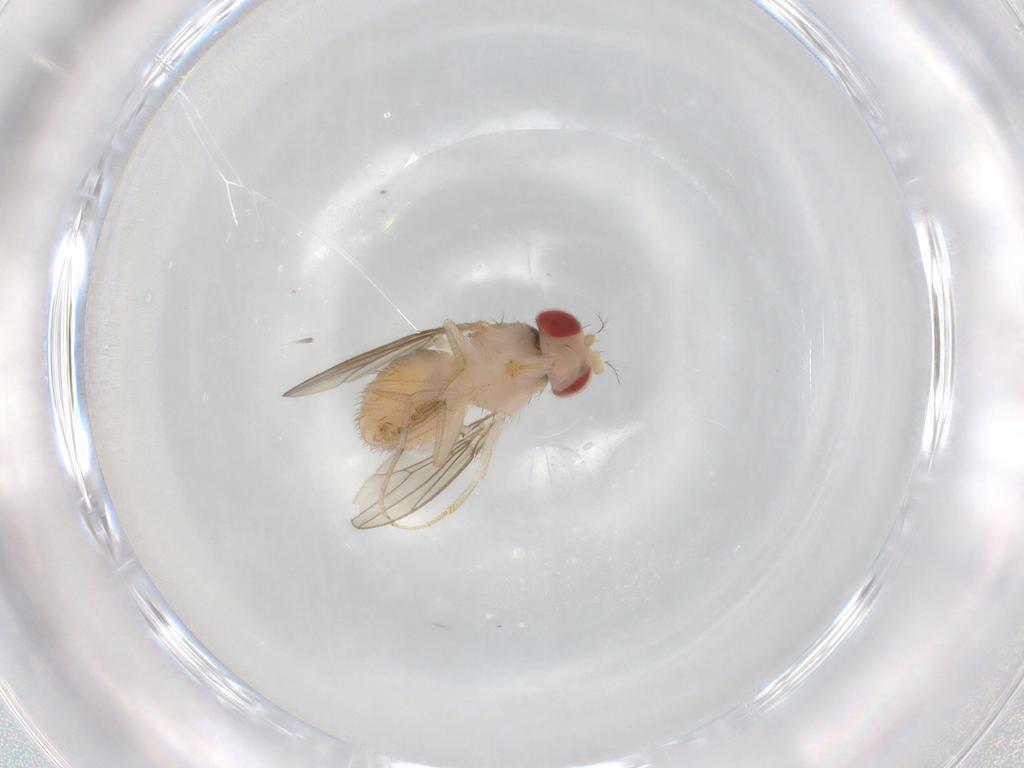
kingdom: Animalia
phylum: Arthropoda
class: Insecta
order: Diptera
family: Drosophilidae
